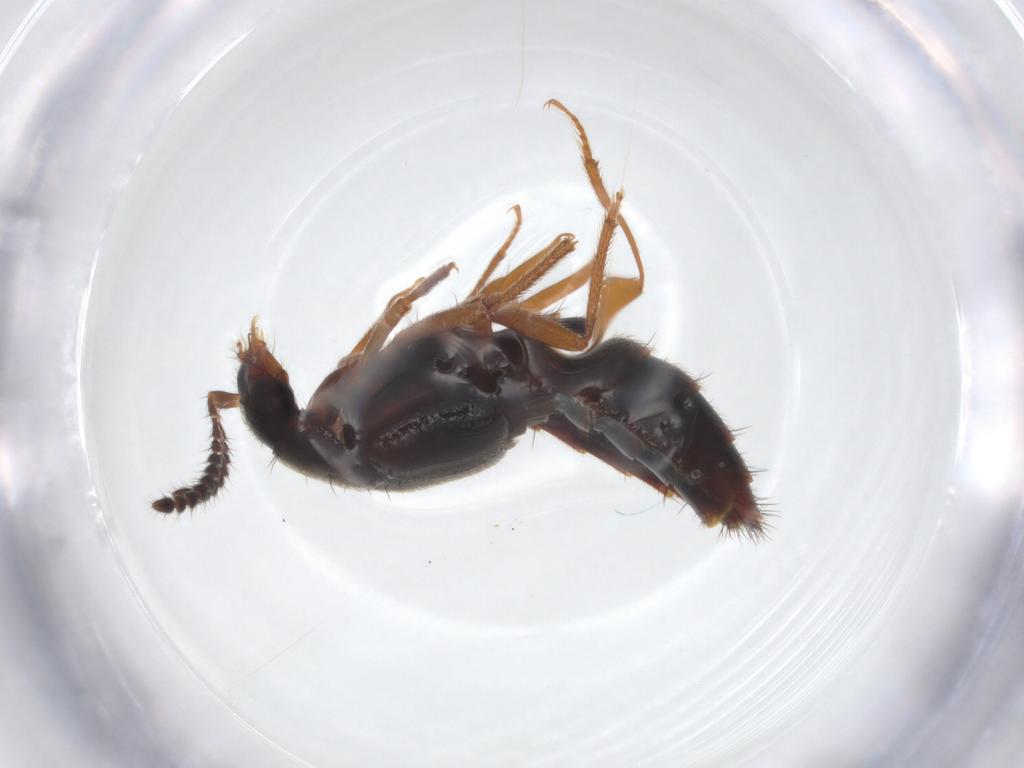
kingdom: Animalia
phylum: Arthropoda
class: Insecta
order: Coleoptera
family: Staphylinidae
